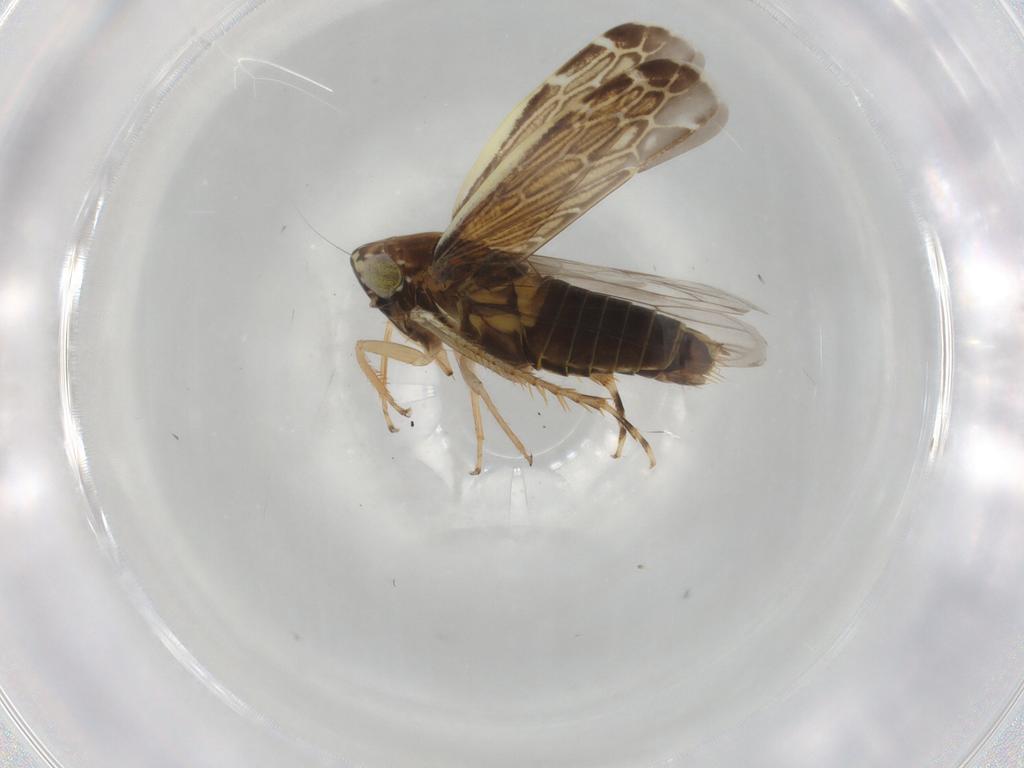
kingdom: Animalia
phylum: Arthropoda
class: Insecta
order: Hemiptera
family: Cicadellidae
